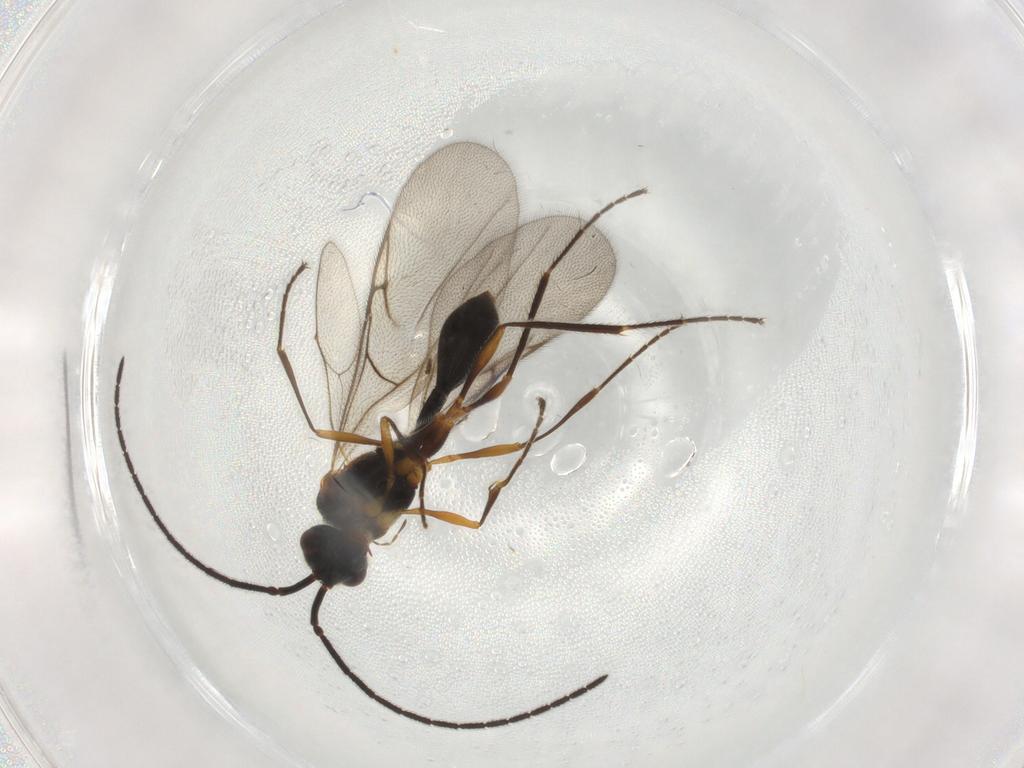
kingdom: Animalia
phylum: Arthropoda
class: Insecta
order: Hymenoptera
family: Diapriidae
